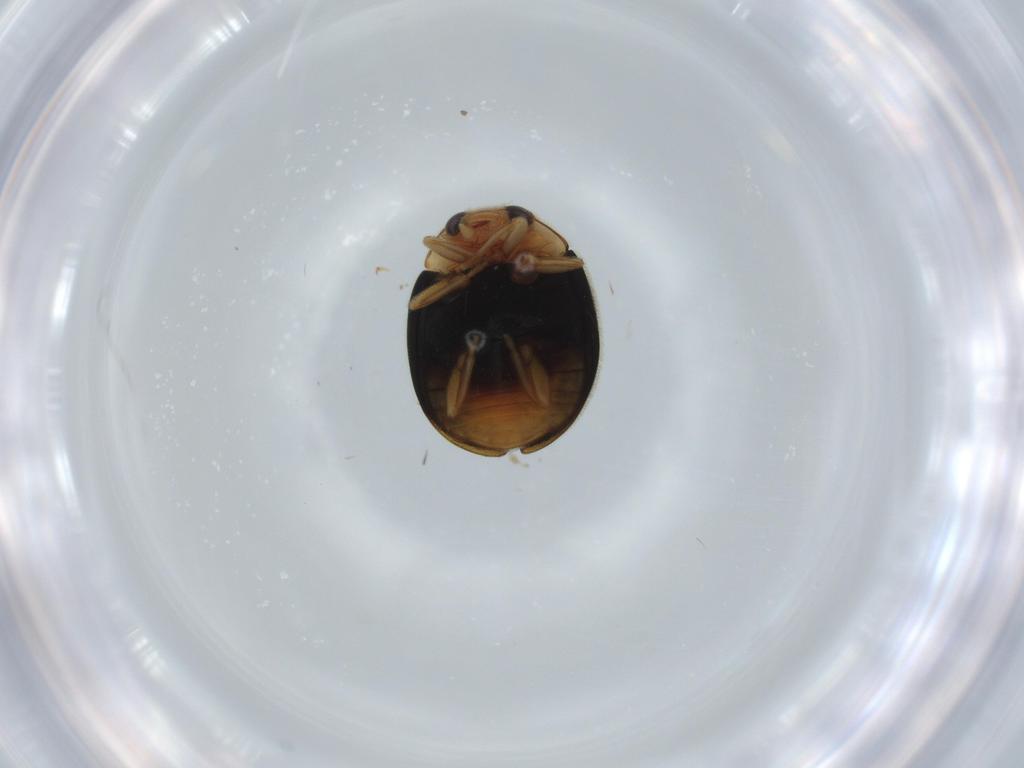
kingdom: Animalia
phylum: Arthropoda
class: Insecta
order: Coleoptera
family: Coccinellidae
